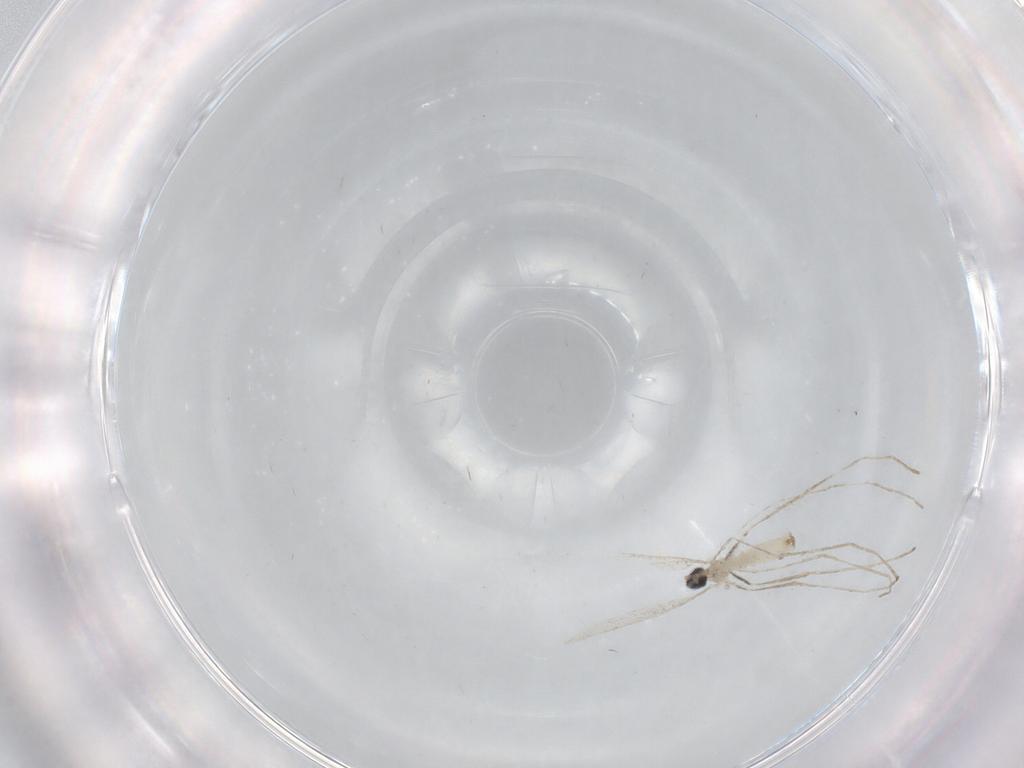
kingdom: Animalia
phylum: Arthropoda
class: Insecta
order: Diptera
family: Cecidomyiidae
